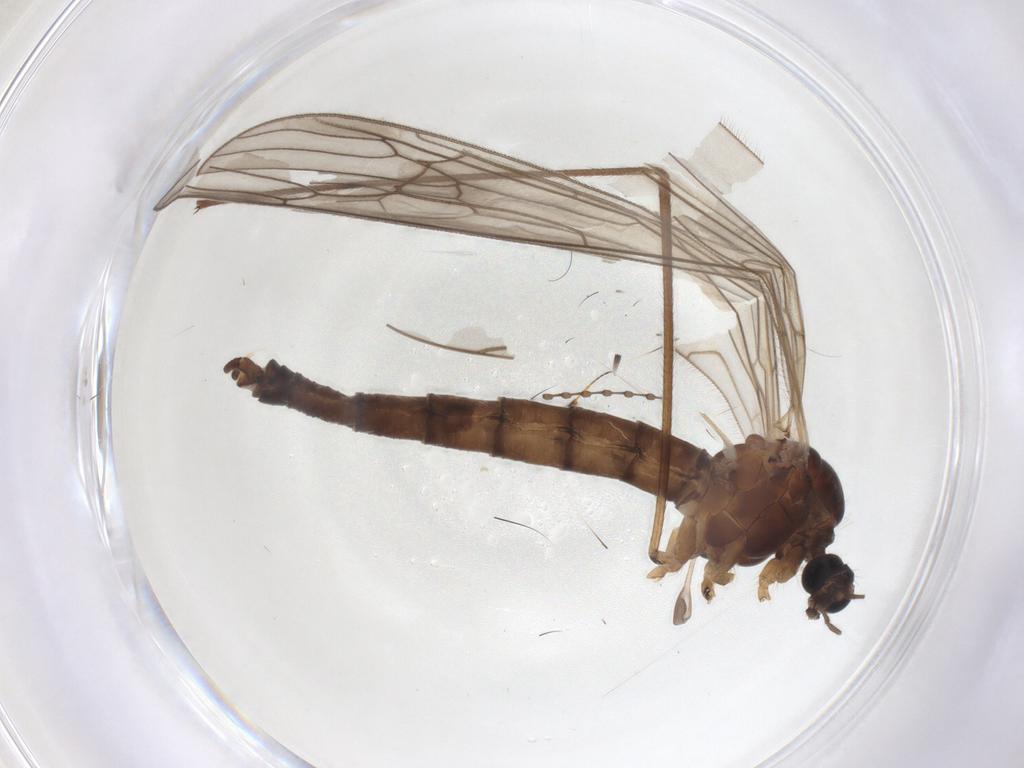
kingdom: Animalia
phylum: Arthropoda
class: Insecta
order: Diptera
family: Trichoceridae
